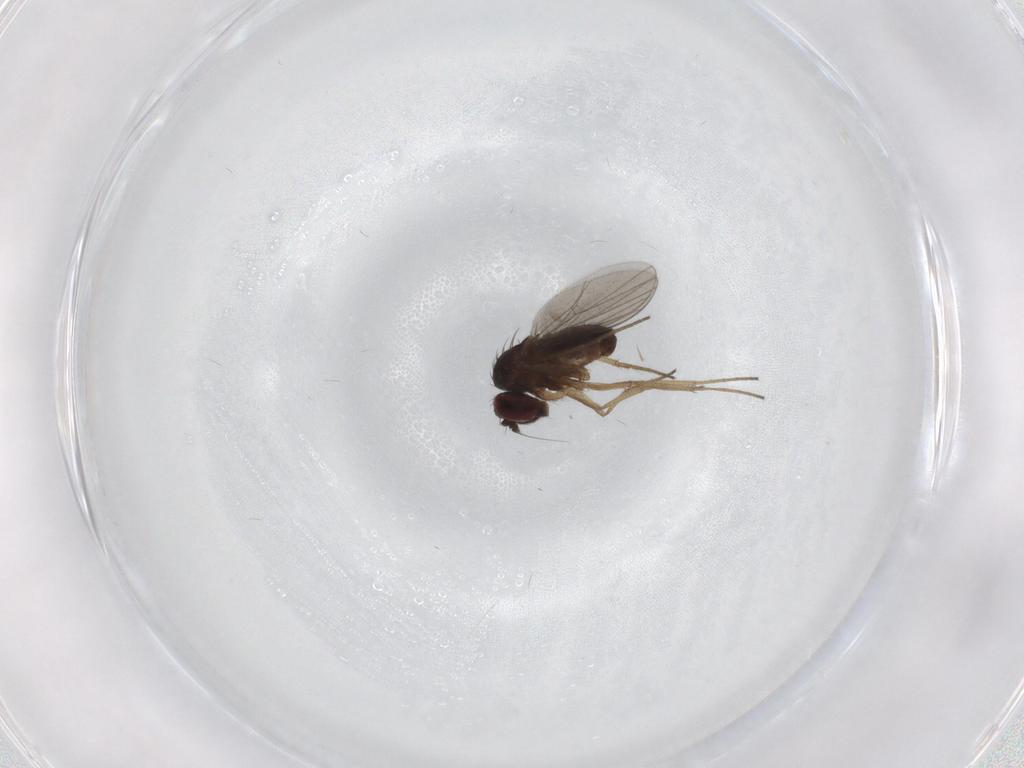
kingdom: Animalia
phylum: Arthropoda
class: Insecta
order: Diptera
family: Dolichopodidae
